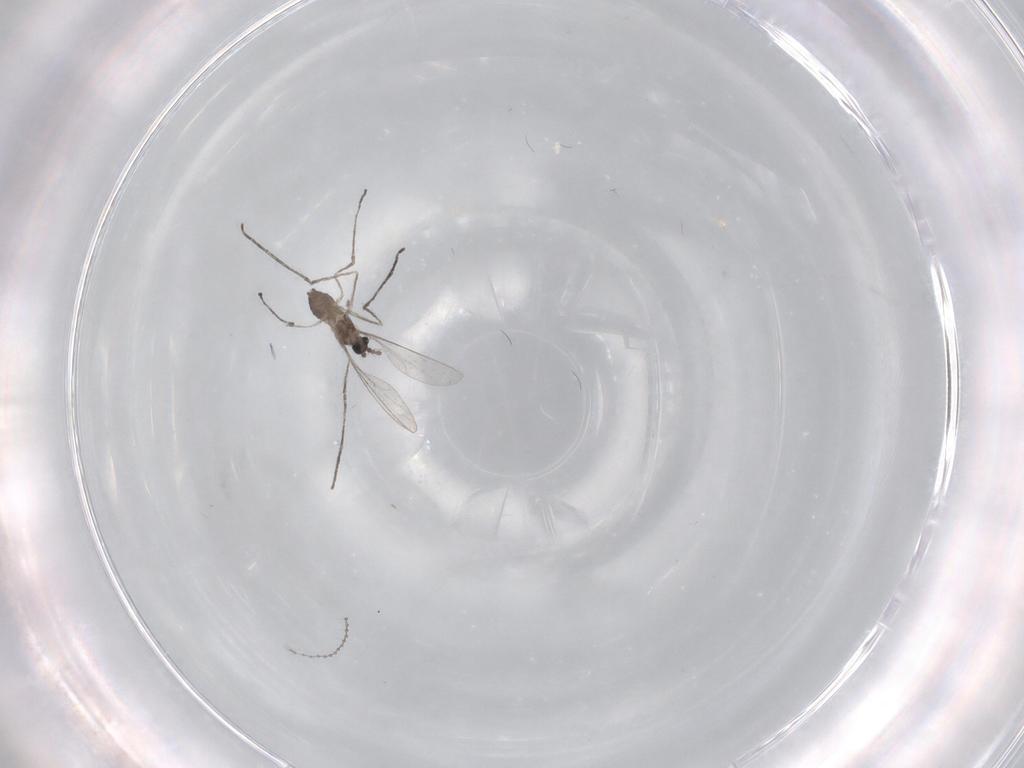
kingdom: Animalia
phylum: Arthropoda
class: Insecta
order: Diptera
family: Cecidomyiidae
